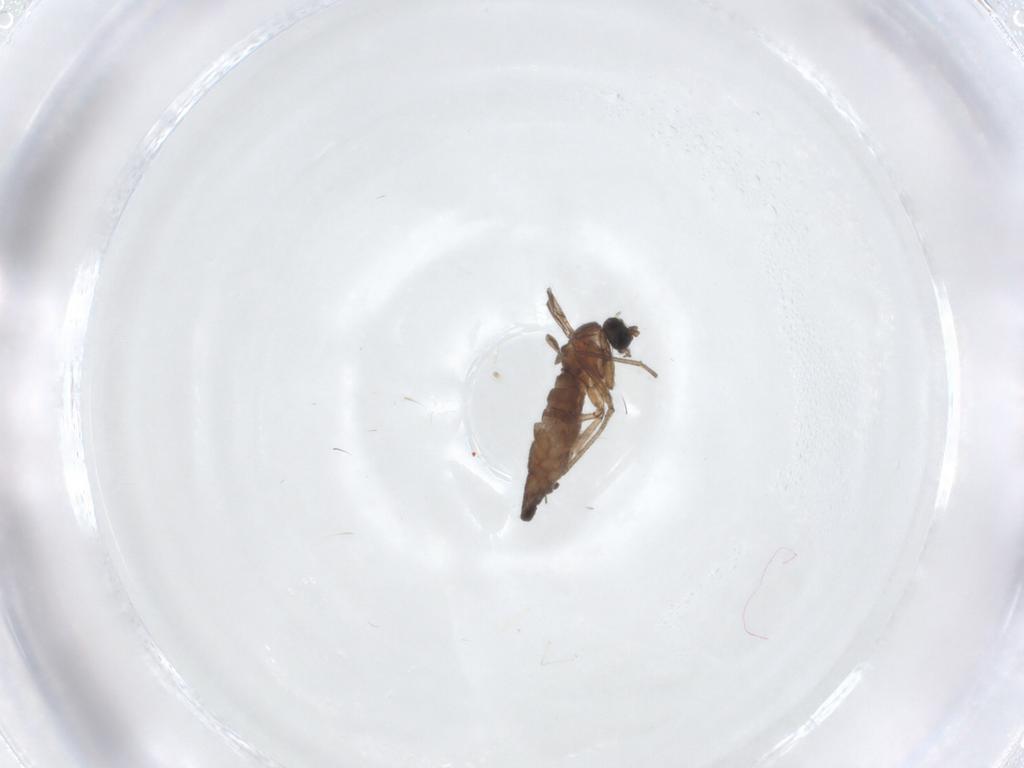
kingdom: Animalia
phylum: Arthropoda
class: Insecta
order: Diptera
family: Sciaridae
